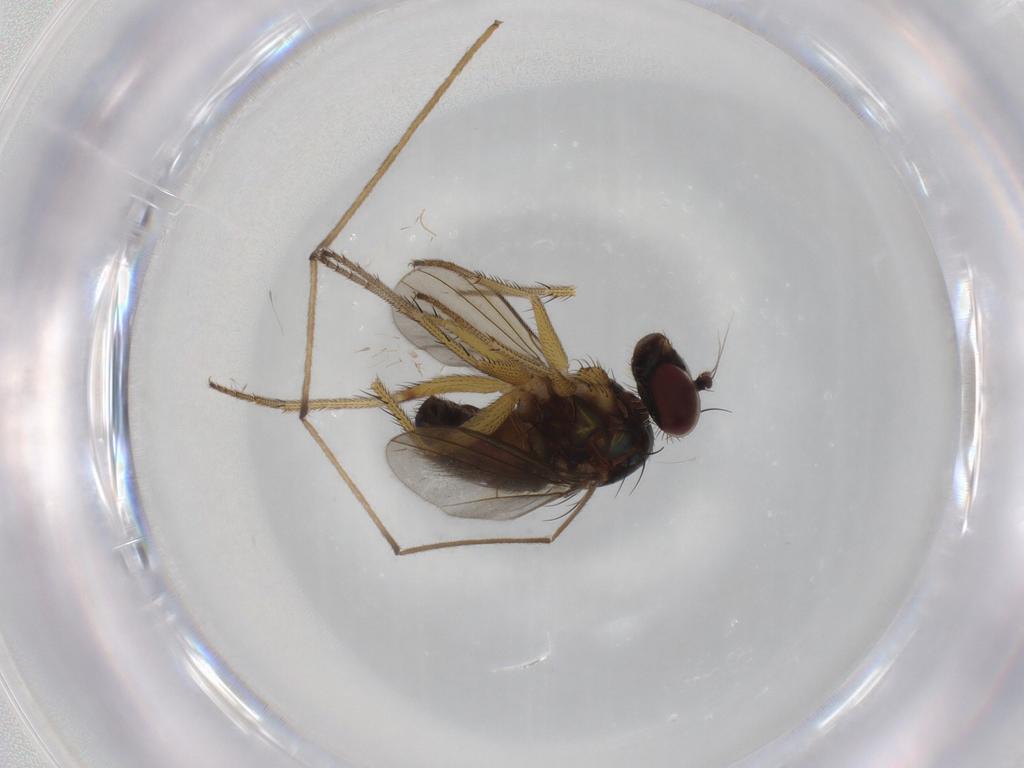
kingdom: Animalia
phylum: Arthropoda
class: Insecta
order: Diptera
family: Dolichopodidae
